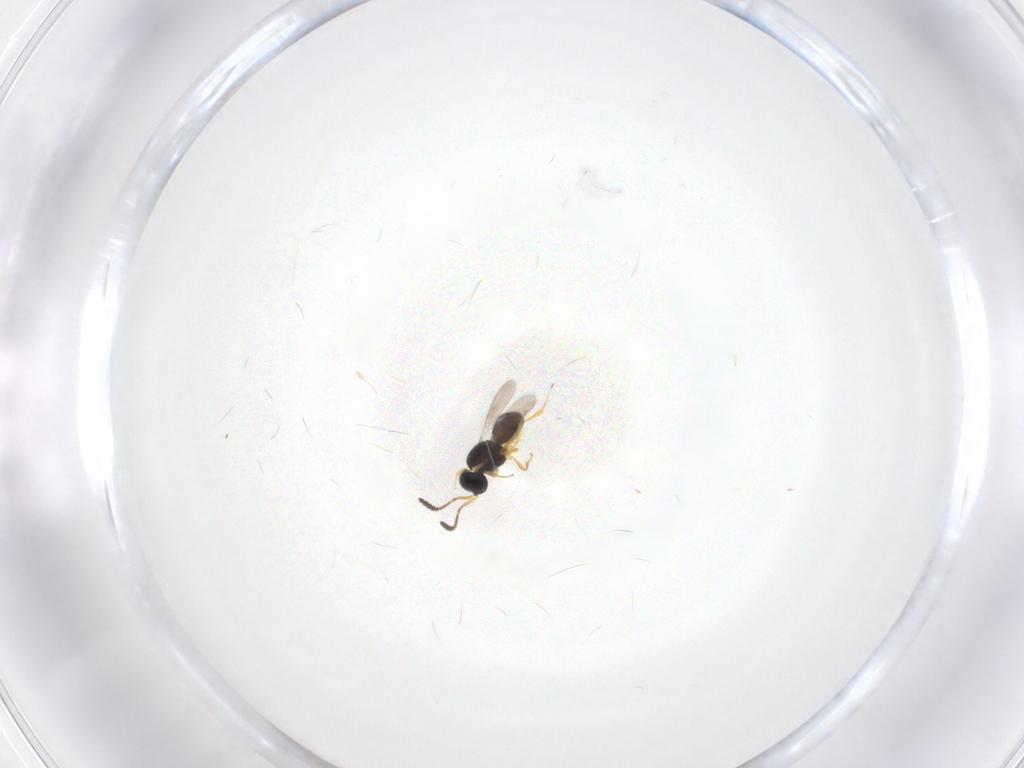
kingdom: Animalia
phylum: Arthropoda
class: Insecta
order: Hymenoptera
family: Scelionidae
